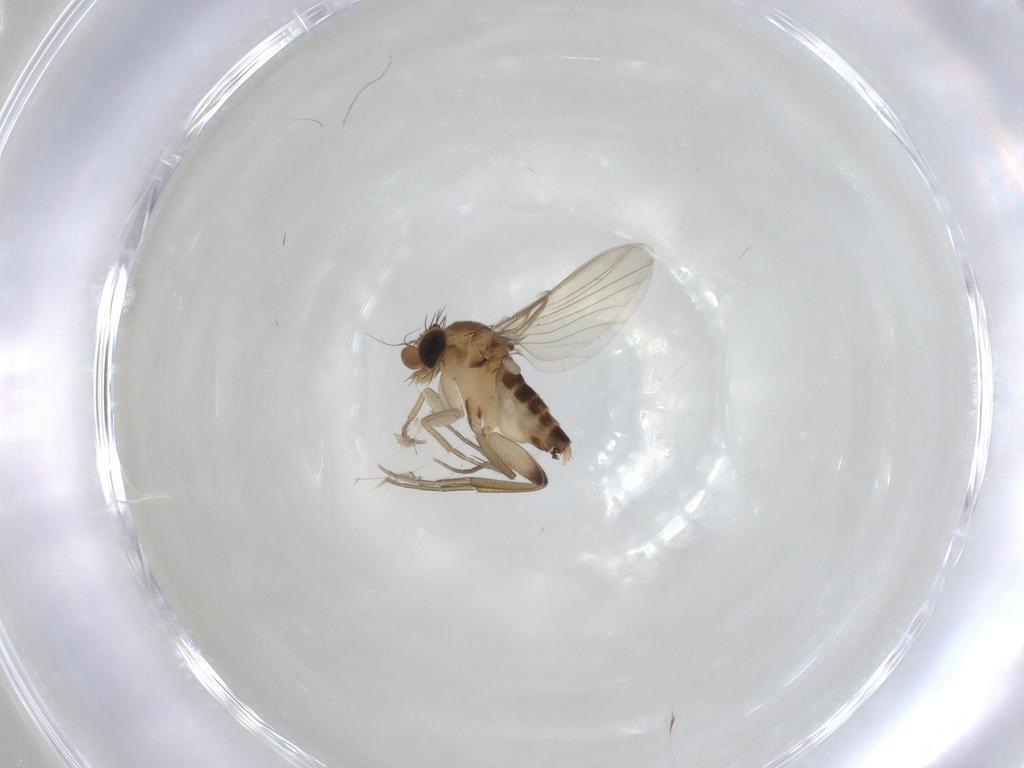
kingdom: Animalia
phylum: Arthropoda
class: Insecta
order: Diptera
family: Phoridae
